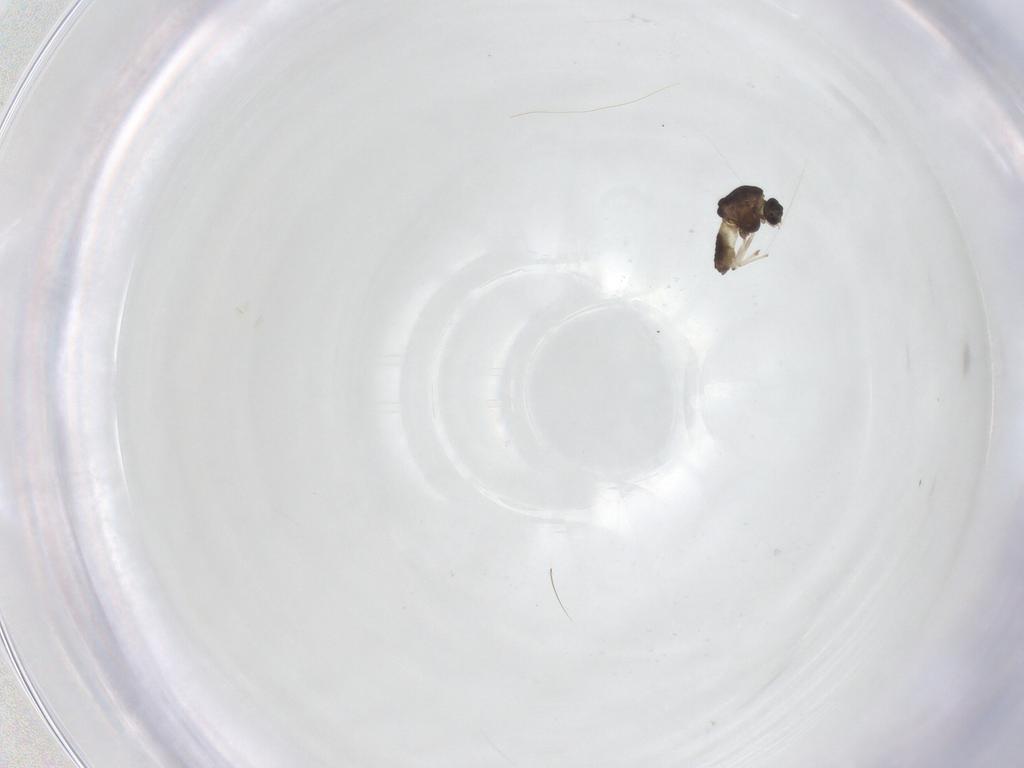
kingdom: Animalia
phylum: Arthropoda
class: Insecta
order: Diptera
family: Chironomidae
